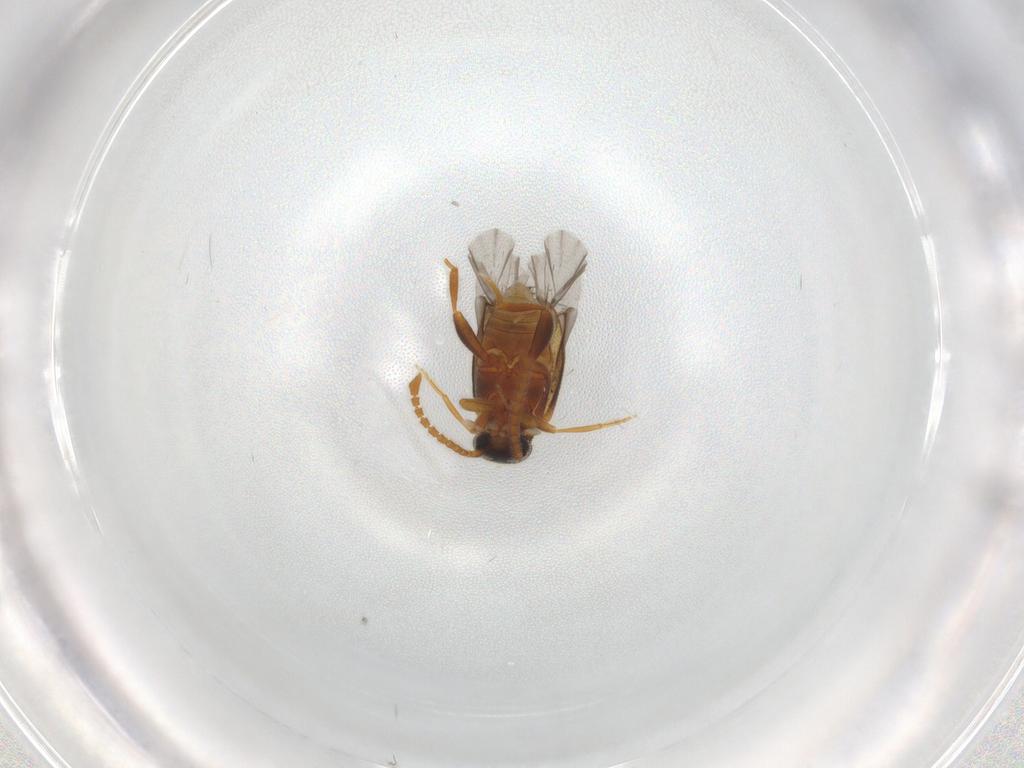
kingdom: Animalia
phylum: Arthropoda
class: Insecta
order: Coleoptera
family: Aderidae
